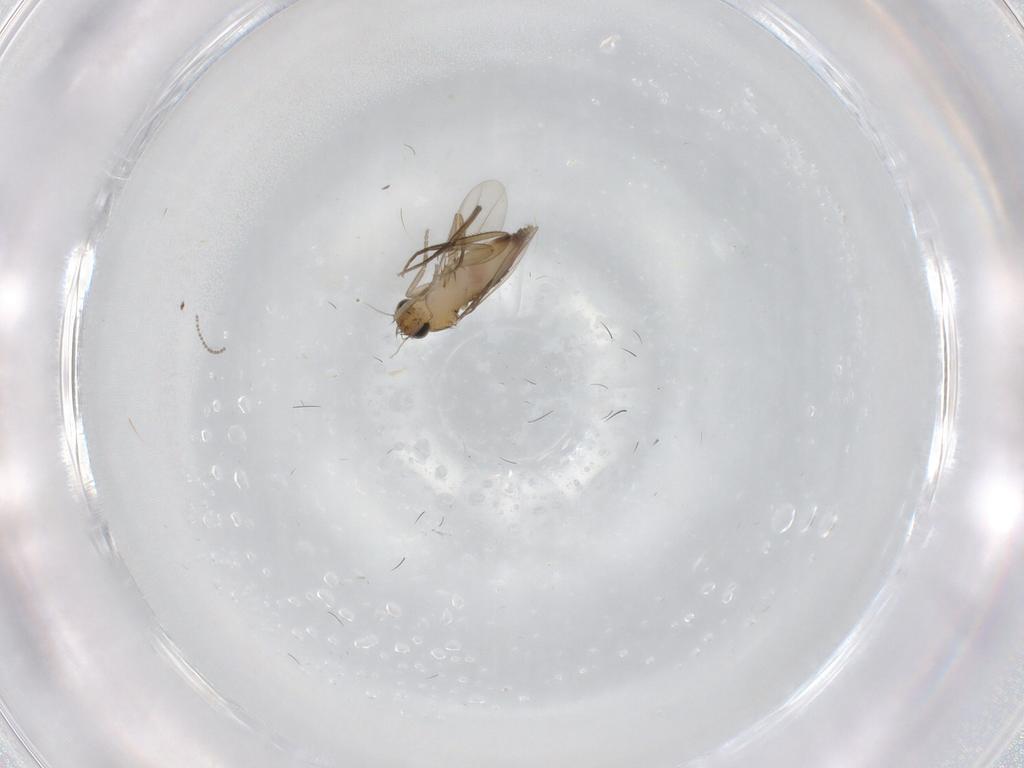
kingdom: Animalia
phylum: Arthropoda
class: Insecta
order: Diptera
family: Phoridae
